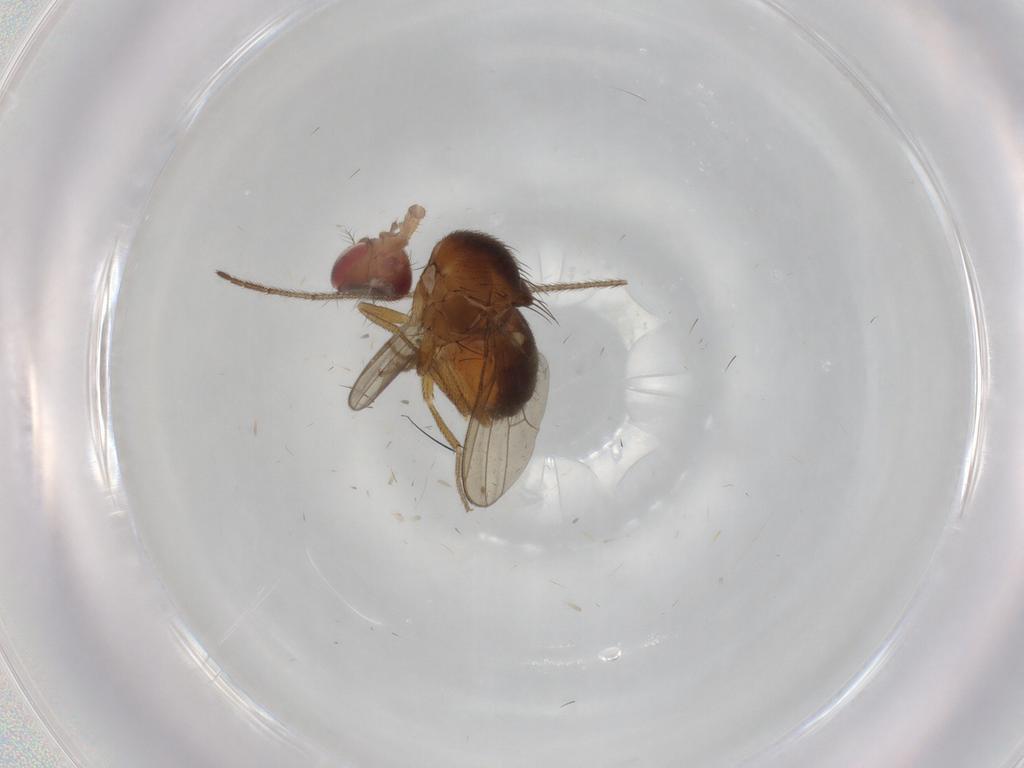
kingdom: Animalia
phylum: Arthropoda
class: Insecta
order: Diptera
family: Drosophilidae
